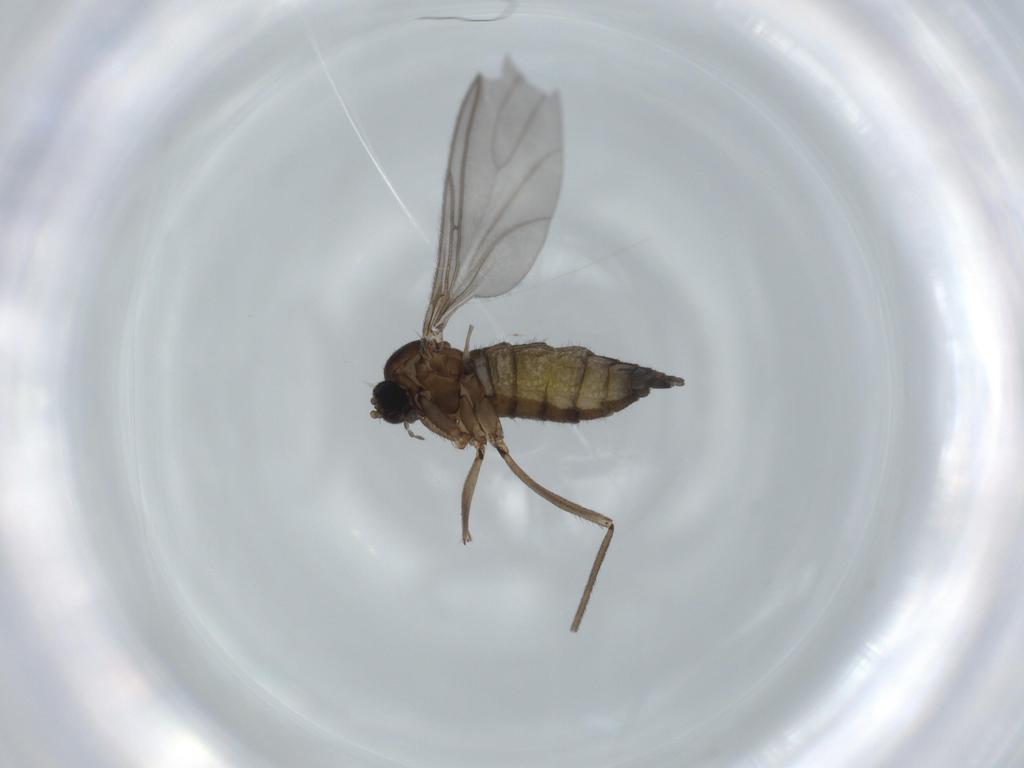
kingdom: Animalia
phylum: Arthropoda
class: Insecta
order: Diptera
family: Sciaridae
